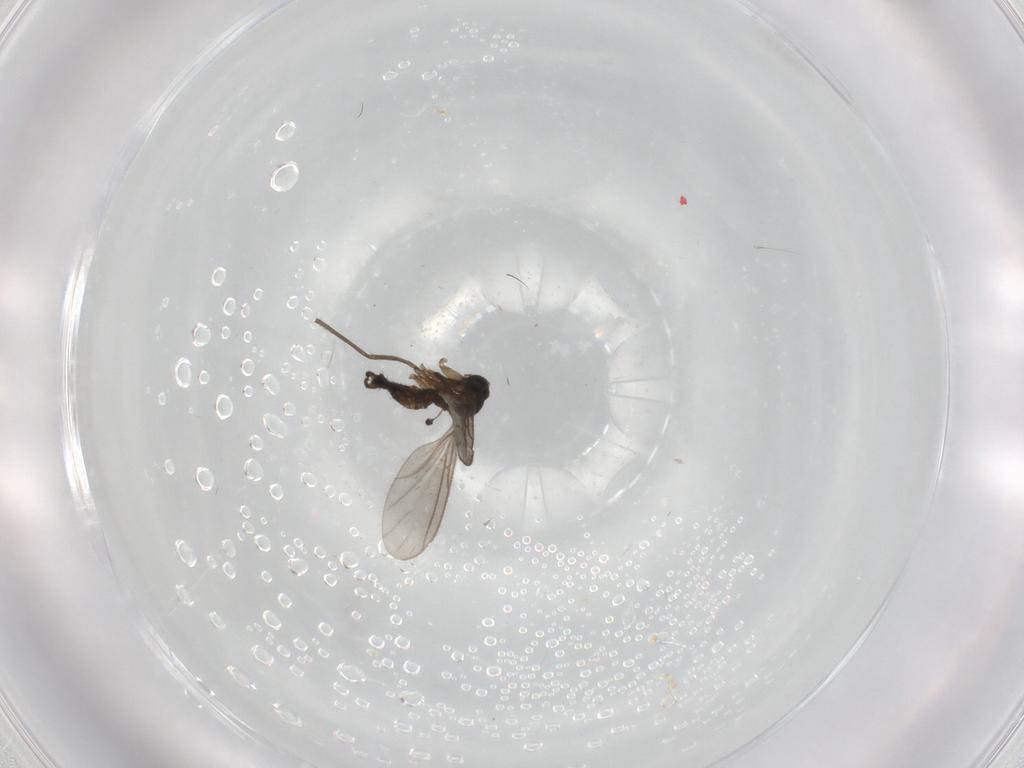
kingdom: Animalia
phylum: Arthropoda
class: Insecta
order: Diptera
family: Sciaridae
